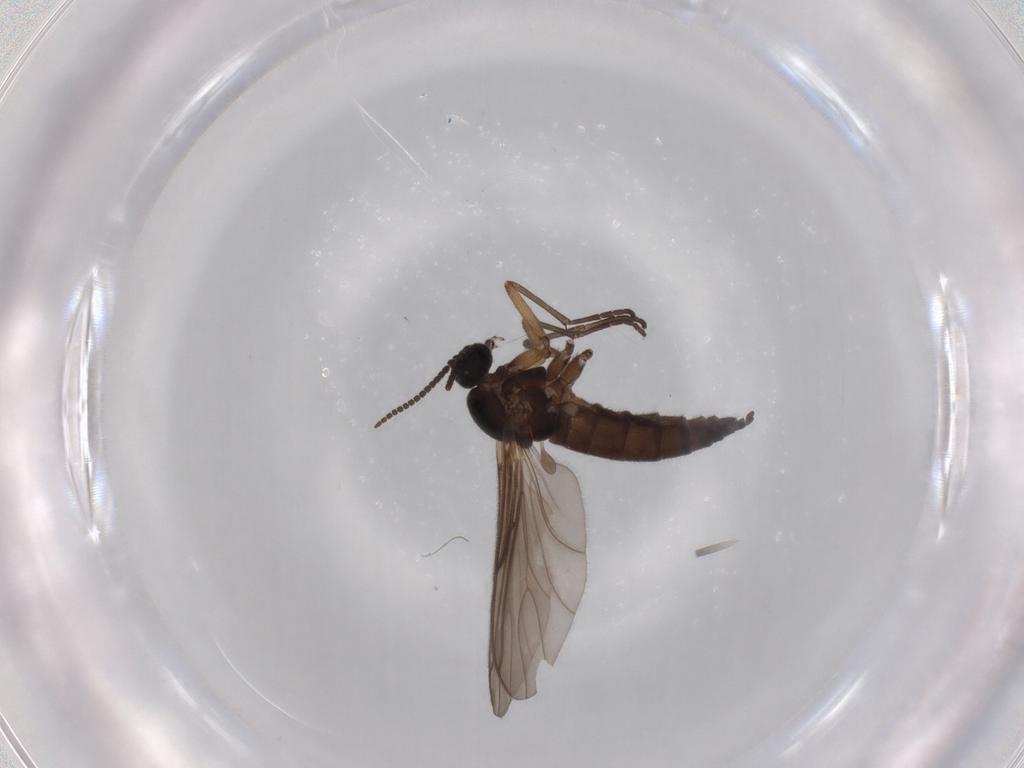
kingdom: Animalia
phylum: Arthropoda
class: Insecta
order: Diptera
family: Sciaridae
